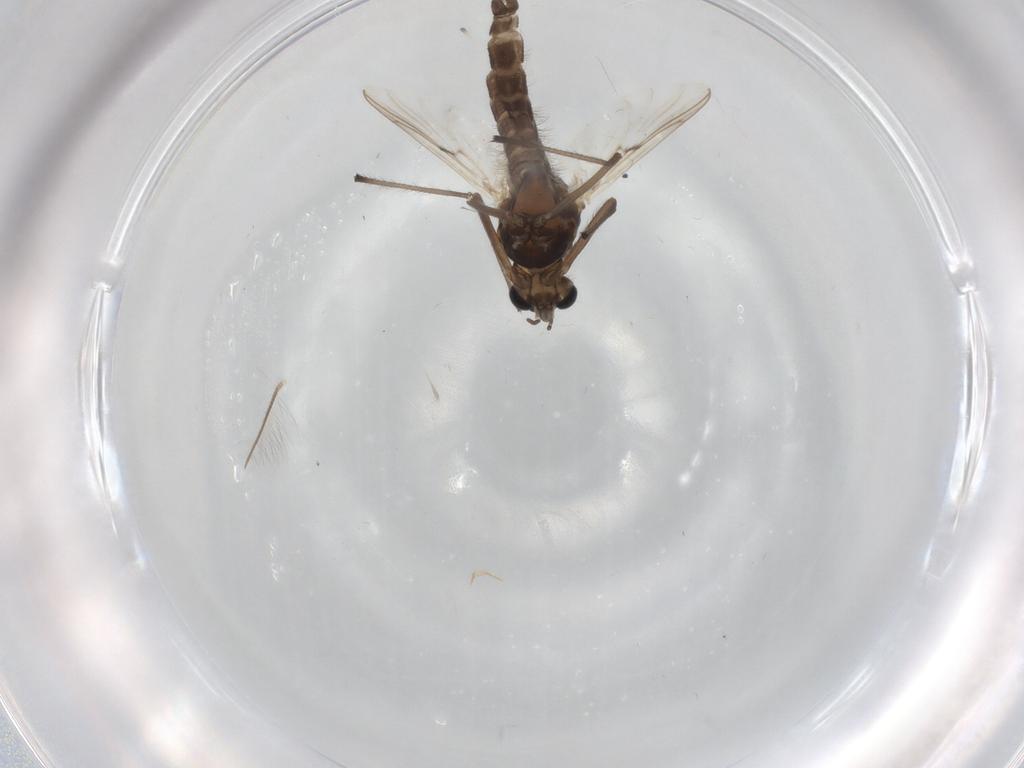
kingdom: Animalia
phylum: Arthropoda
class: Insecta
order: Diptera
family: Chironomidae
